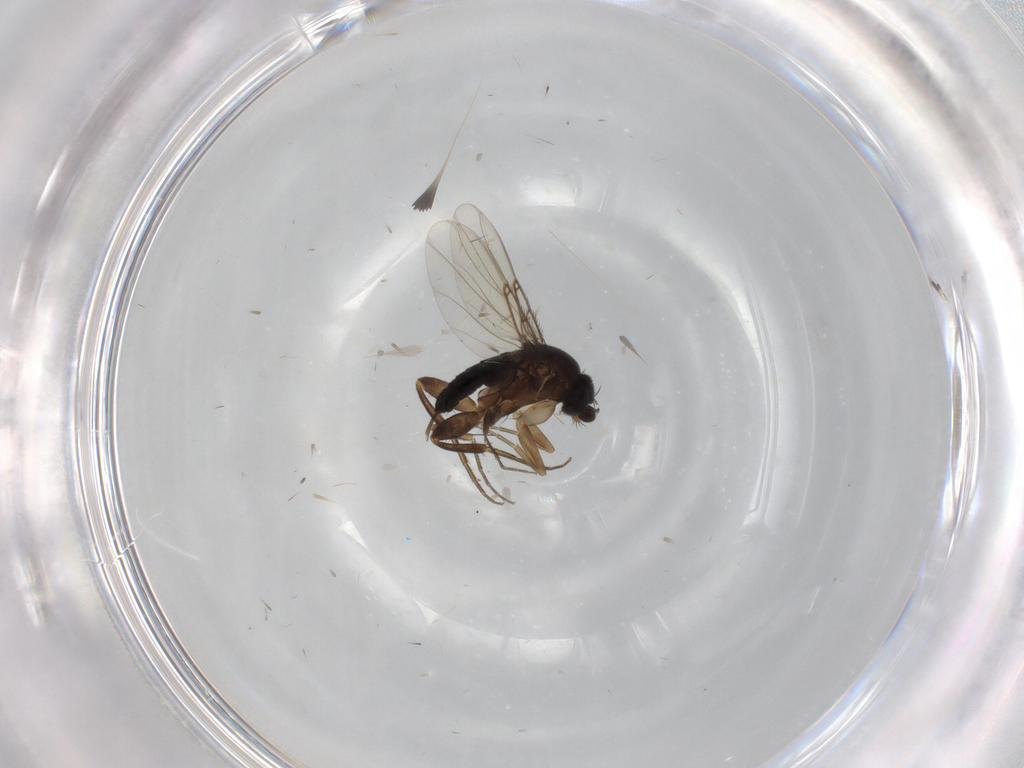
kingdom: Animalia
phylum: Arthropoda
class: Insecta
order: Diptera
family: Phoridae
